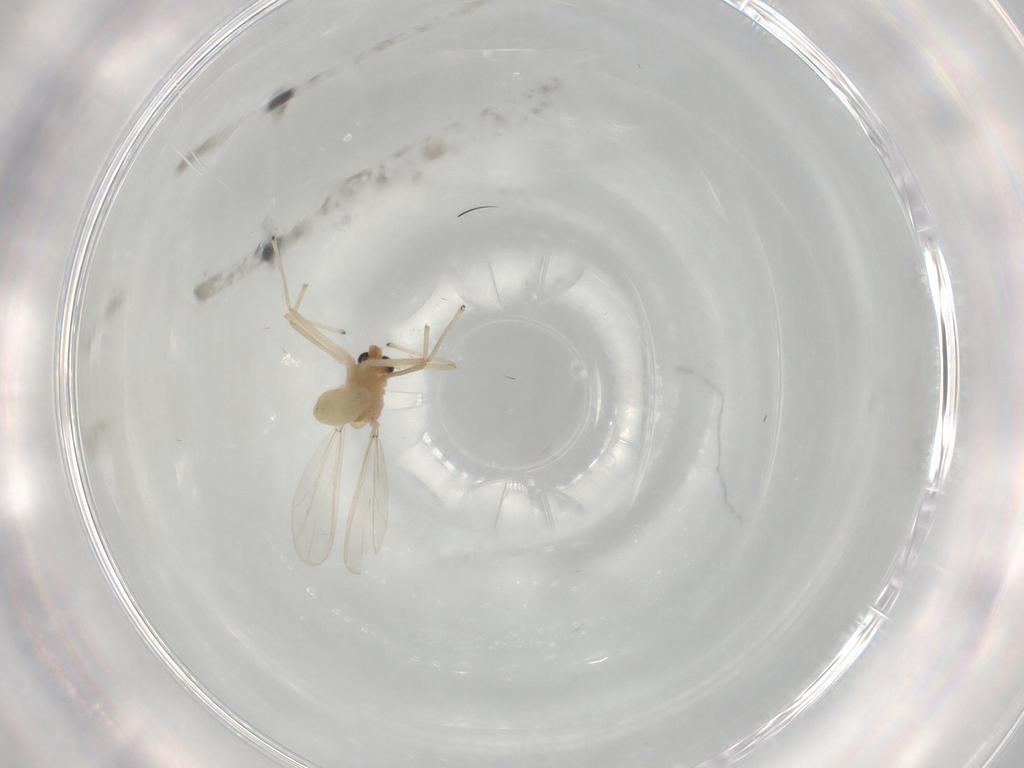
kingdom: Animalia
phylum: Arthropoda
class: Insecta
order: Diptera
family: Chironomidae
